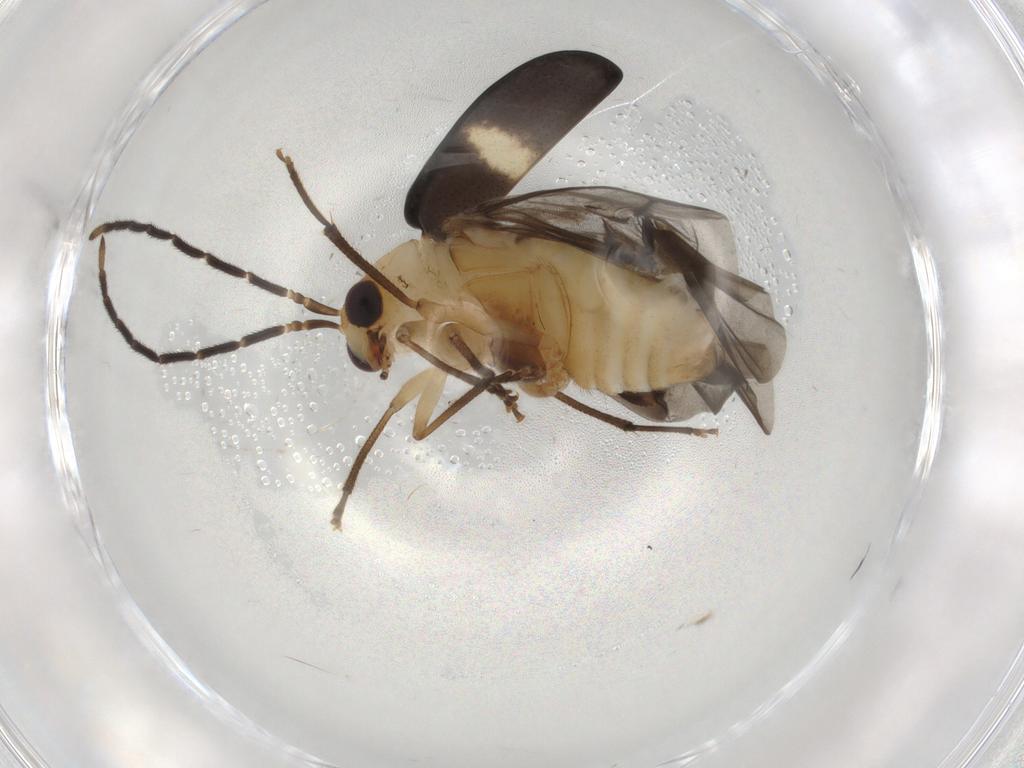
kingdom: Animalia
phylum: Arthropoda
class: Insecta
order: Coleoptera
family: Chrysomelidae
